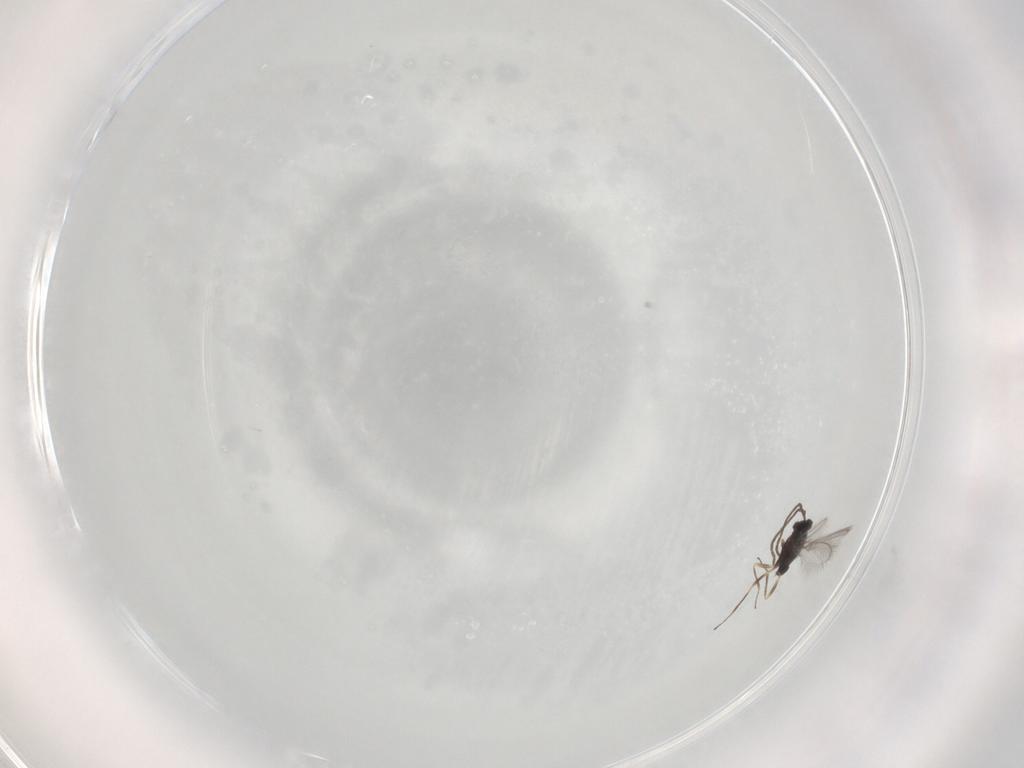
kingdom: Animalia
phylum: Arthropoda
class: Insecta
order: Hymenoptera
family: Mymaridae
